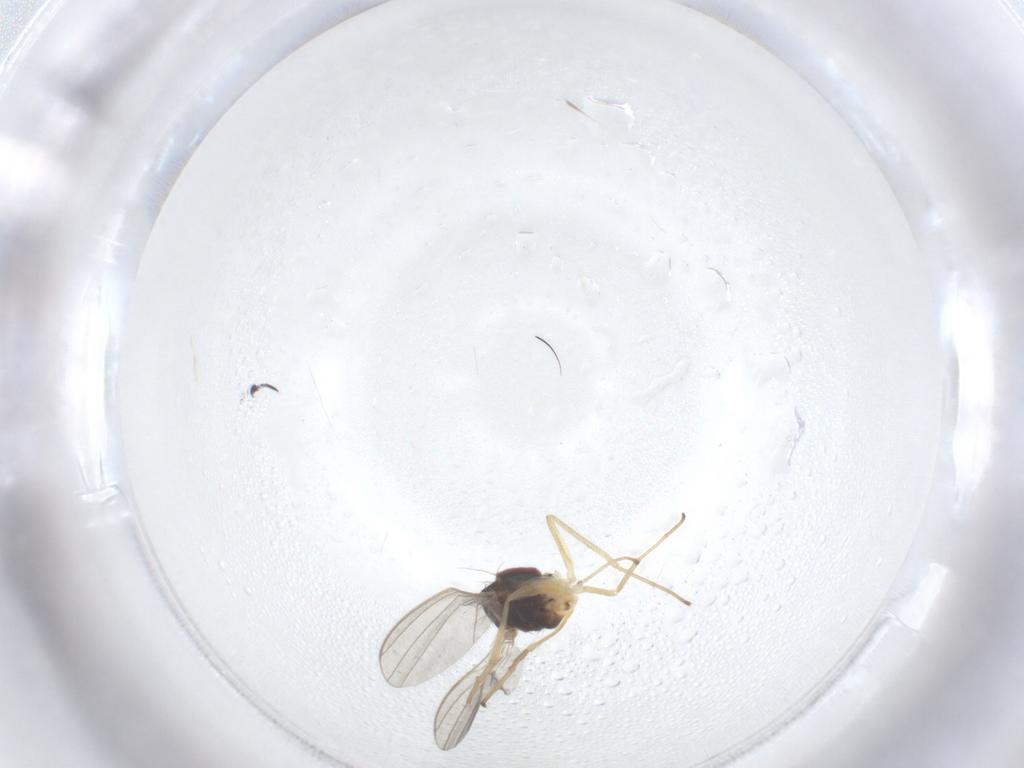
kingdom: Animalia
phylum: Arthropoda
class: Insecta
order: Diptera
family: Dolichopodidae
